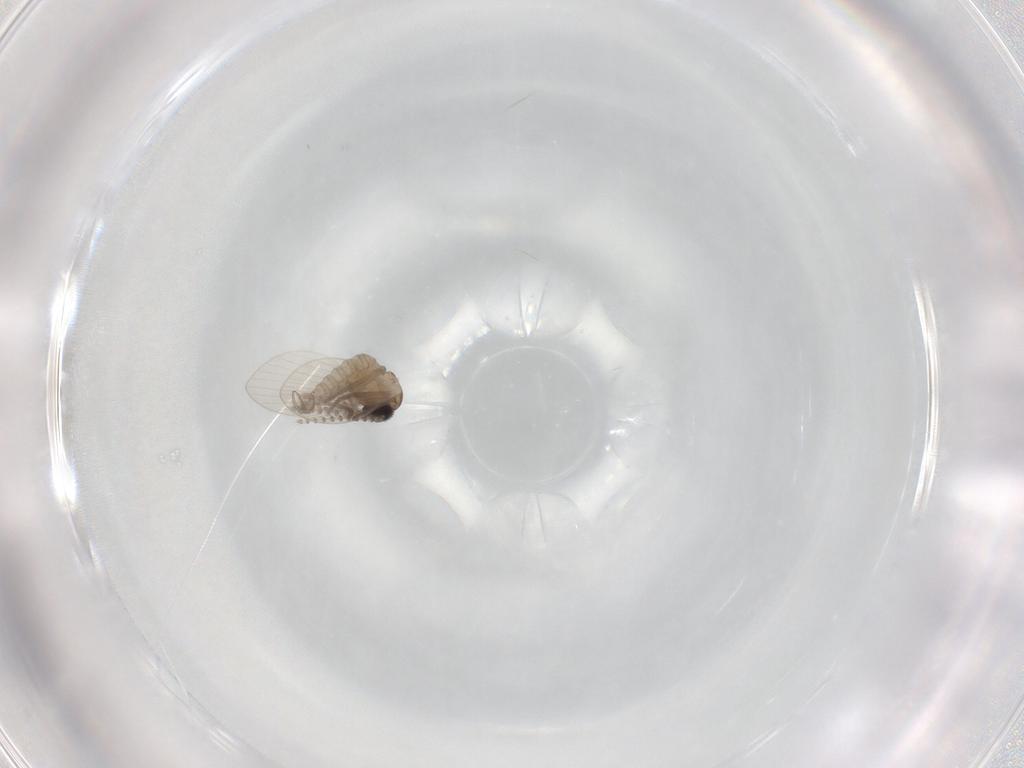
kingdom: Animalia
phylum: Arthropoda
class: Insecta
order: Diptera
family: Psychodidae
